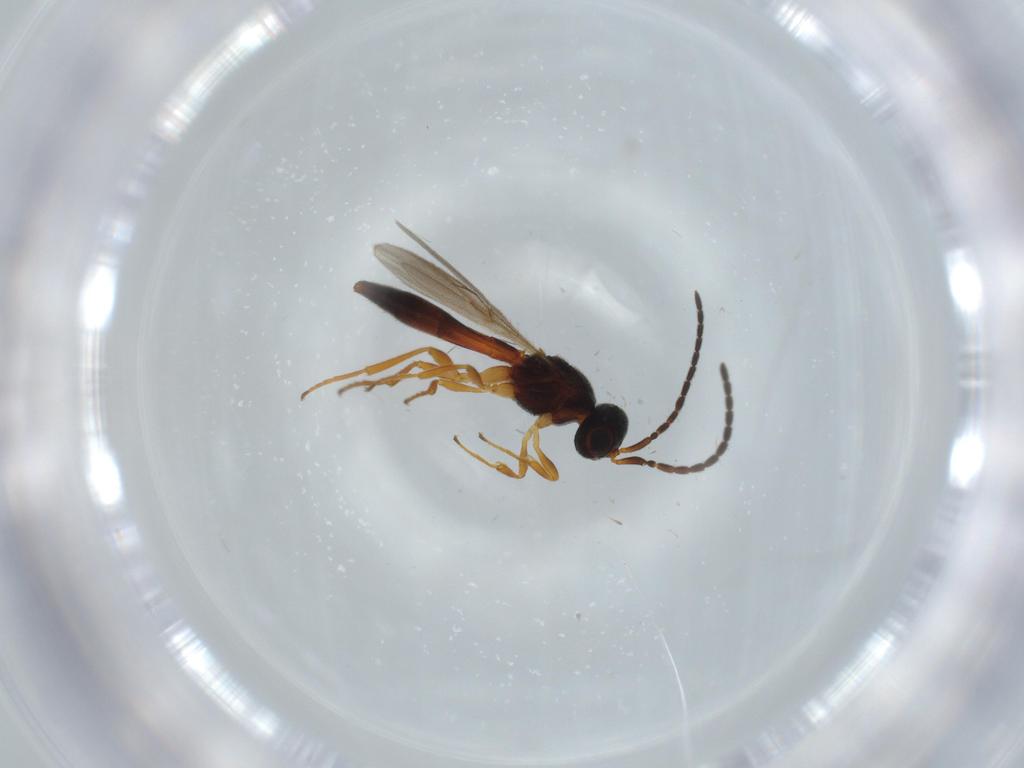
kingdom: Animalia
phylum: Arthropoda
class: Insecta
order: Hymenoptera
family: Scelionidae
